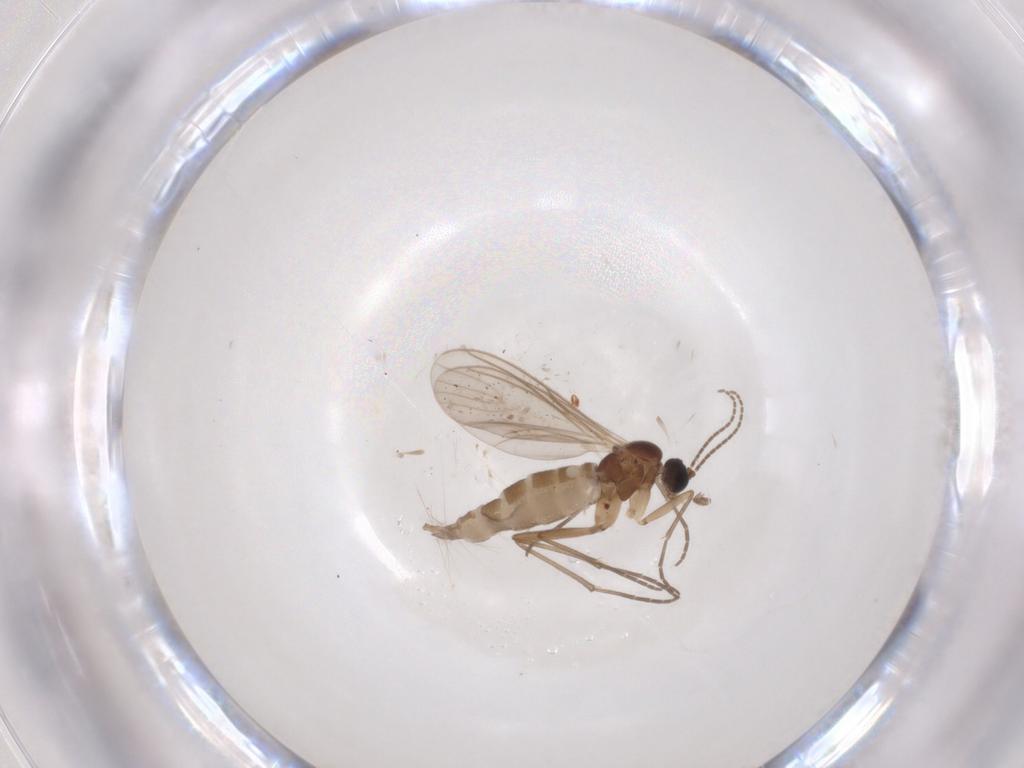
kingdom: Animalia
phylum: Arthropoda
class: Insecta
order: Diptera
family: Sciaridae
